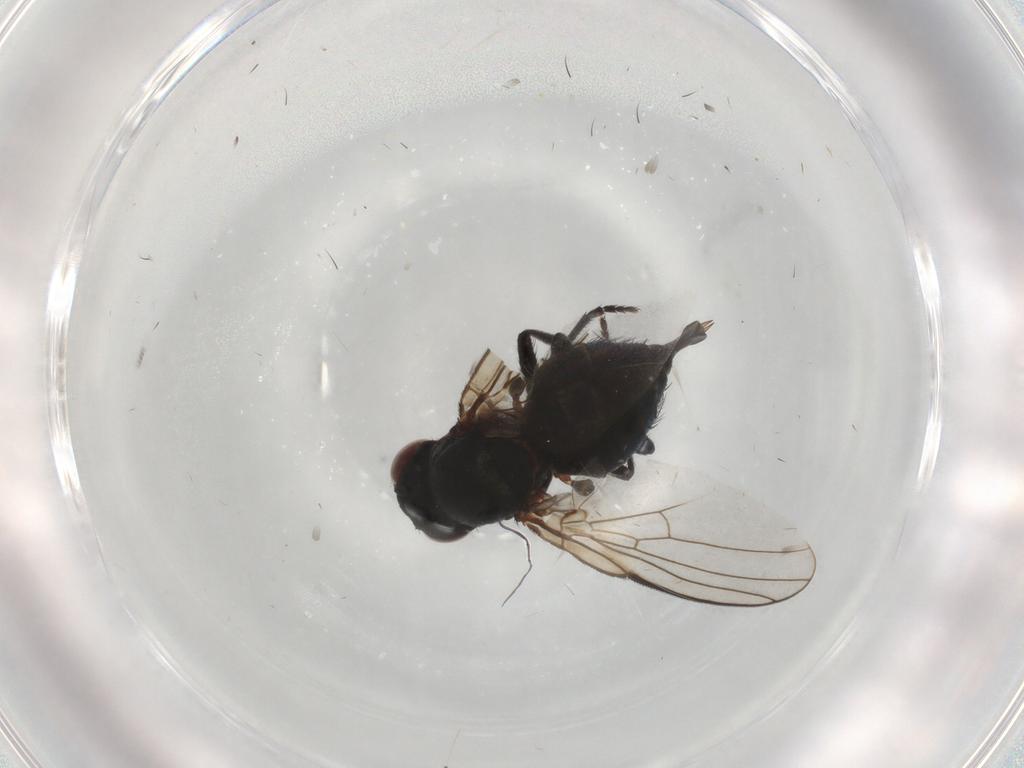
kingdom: Animalia
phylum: Arthropoda
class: Insecta
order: Diptera
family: Agromyzidae
